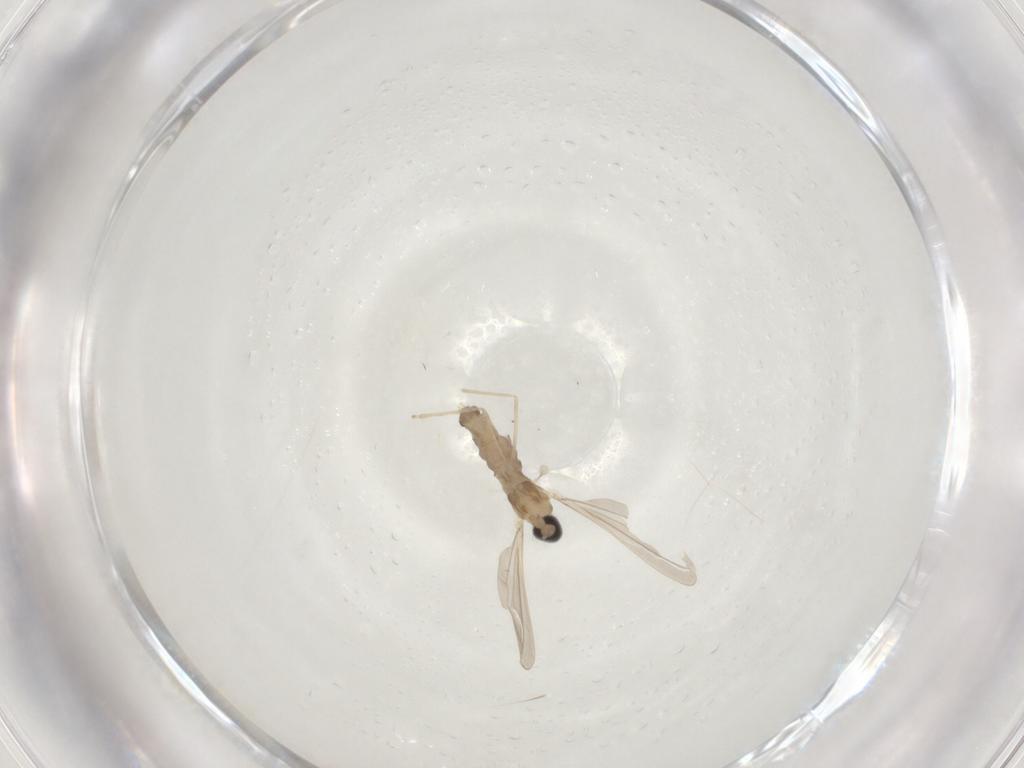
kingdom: Animalia
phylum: Arthropoda
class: Insecta
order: Diptera
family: Cecidomyiidae
